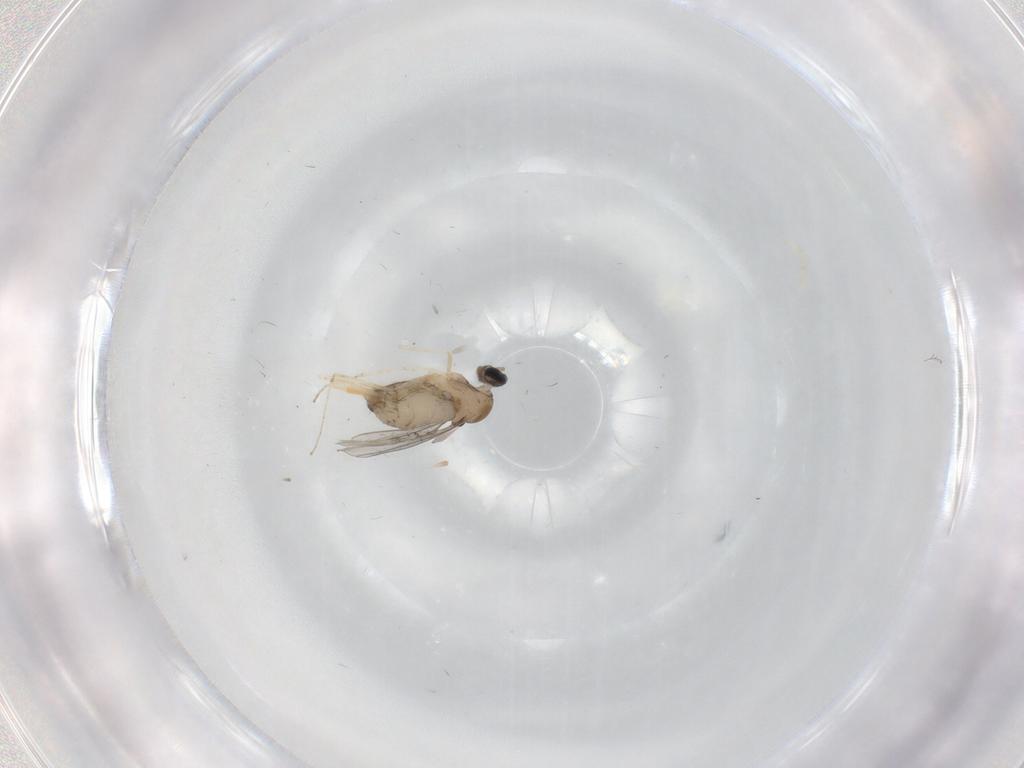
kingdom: Animalia
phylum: Arthropoda
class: Insecta
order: Diptera
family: Cecidomyiidae
